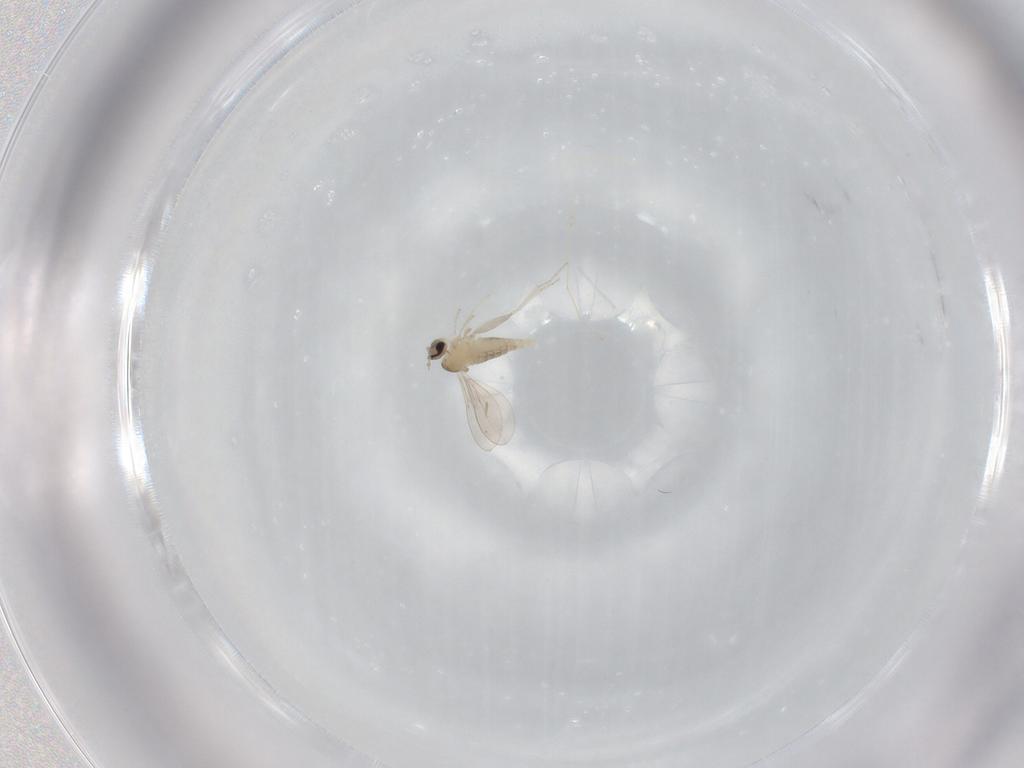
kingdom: Animalia
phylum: Arthropoda
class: Insecta
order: Diptera
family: Cecidomyiidae
